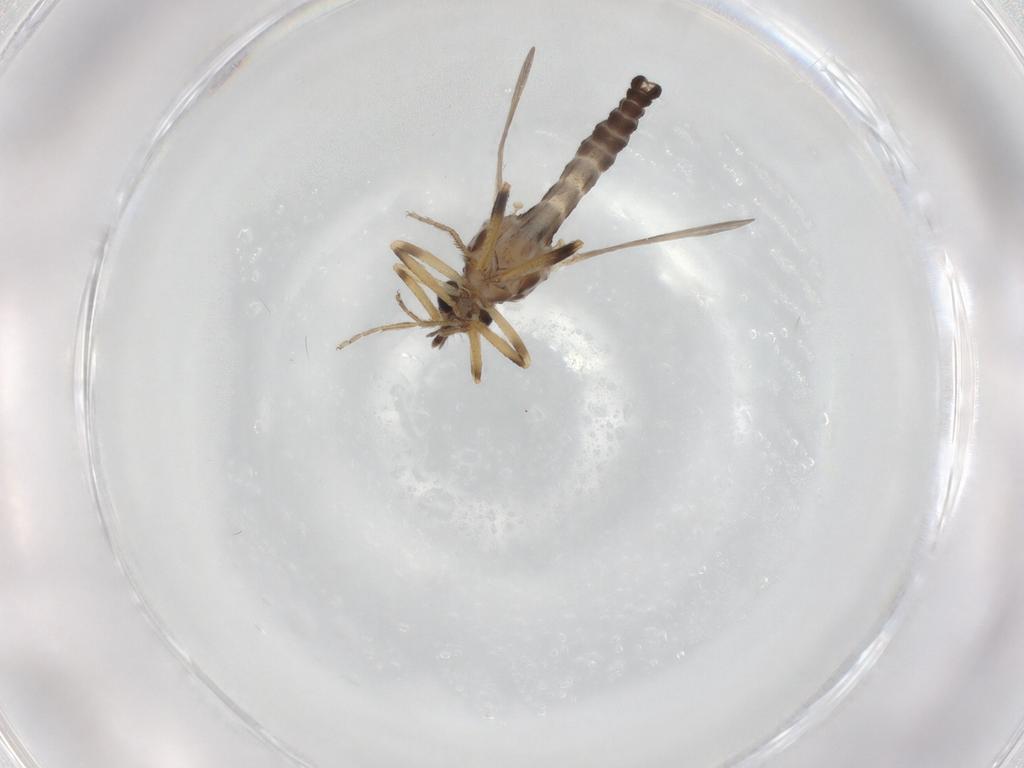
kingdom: Animalia
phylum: Arthropoda
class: Insecta
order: Diptera
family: Ceratopogonidae
